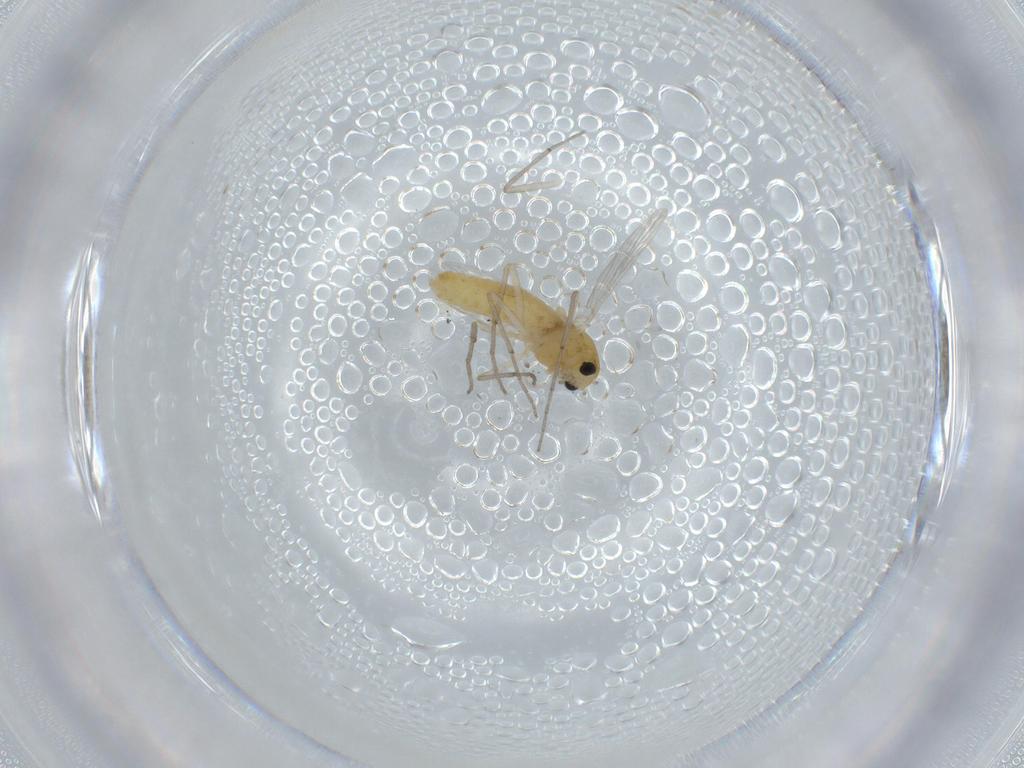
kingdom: Animalia
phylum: Arthropoda
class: Insecta
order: Diptera
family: Chironomidae
